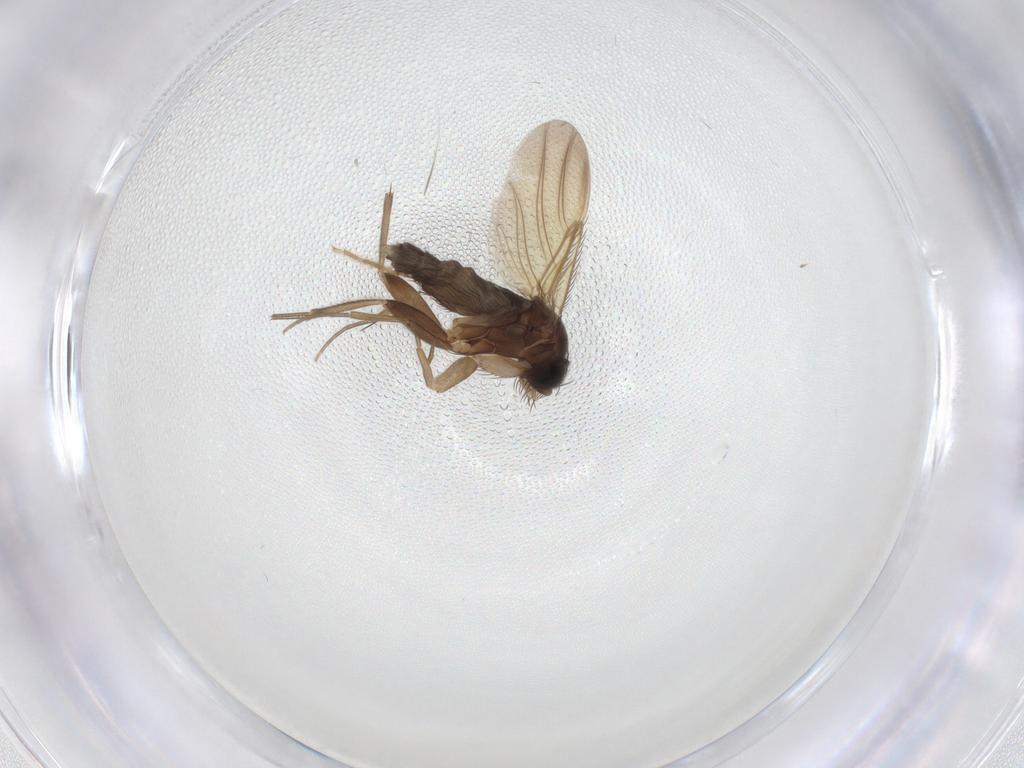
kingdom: Animalia
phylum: Arthropoda
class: Insecta
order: Diptera
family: Phoridae
